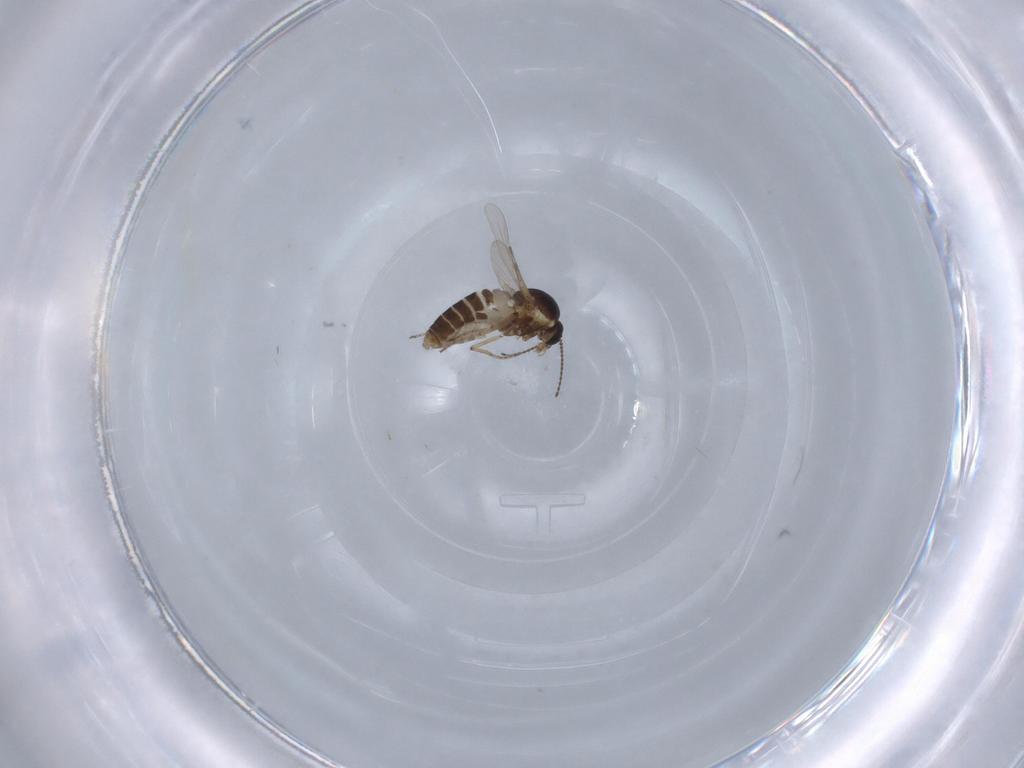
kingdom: Animalia
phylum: Arthropoda
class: Insecta
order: Diptera
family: Ceratopogonidae
